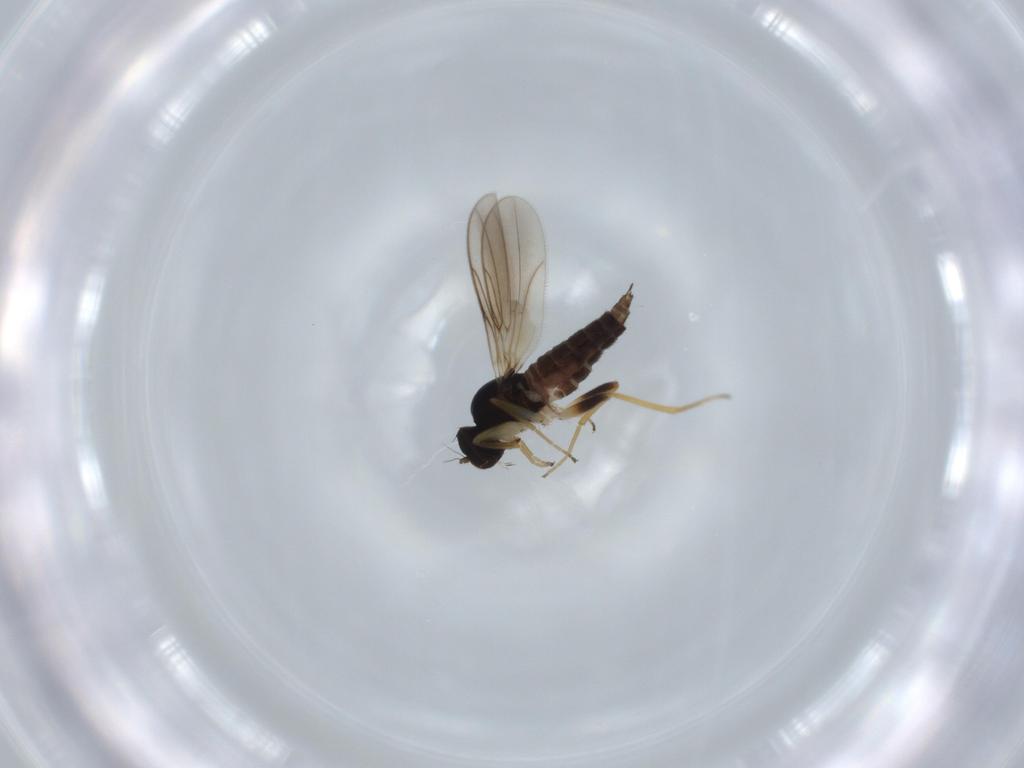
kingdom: Animalia
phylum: Arthropoda
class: Insecta
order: Diptera
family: Hybotidae
